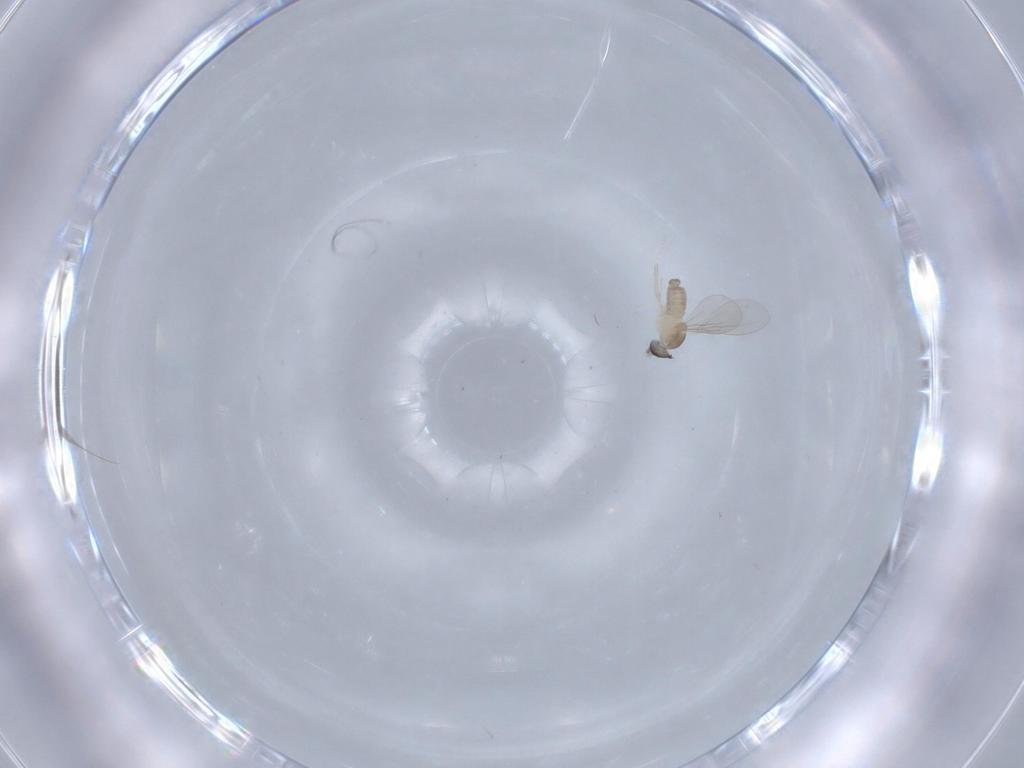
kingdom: Animalia
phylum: Arthropoda
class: Insecta
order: Diptera
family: Cecidomyiidae
